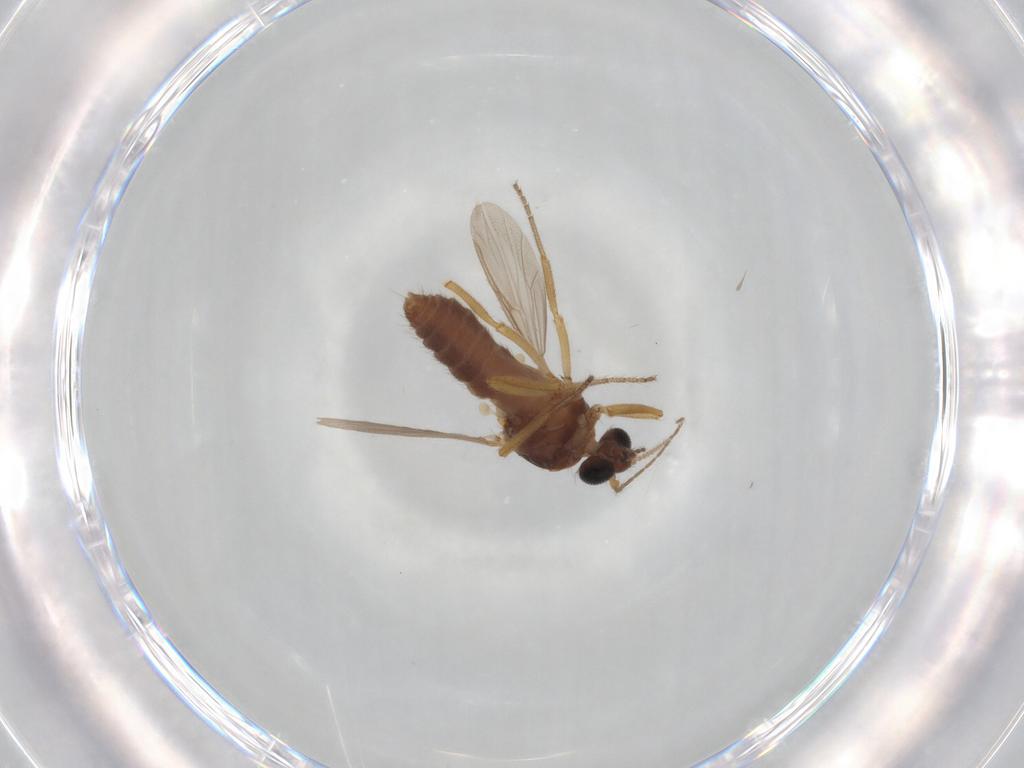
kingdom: Animalia
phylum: Arthropoda
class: Insecta
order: Diptera
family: Ceratopogonidae
